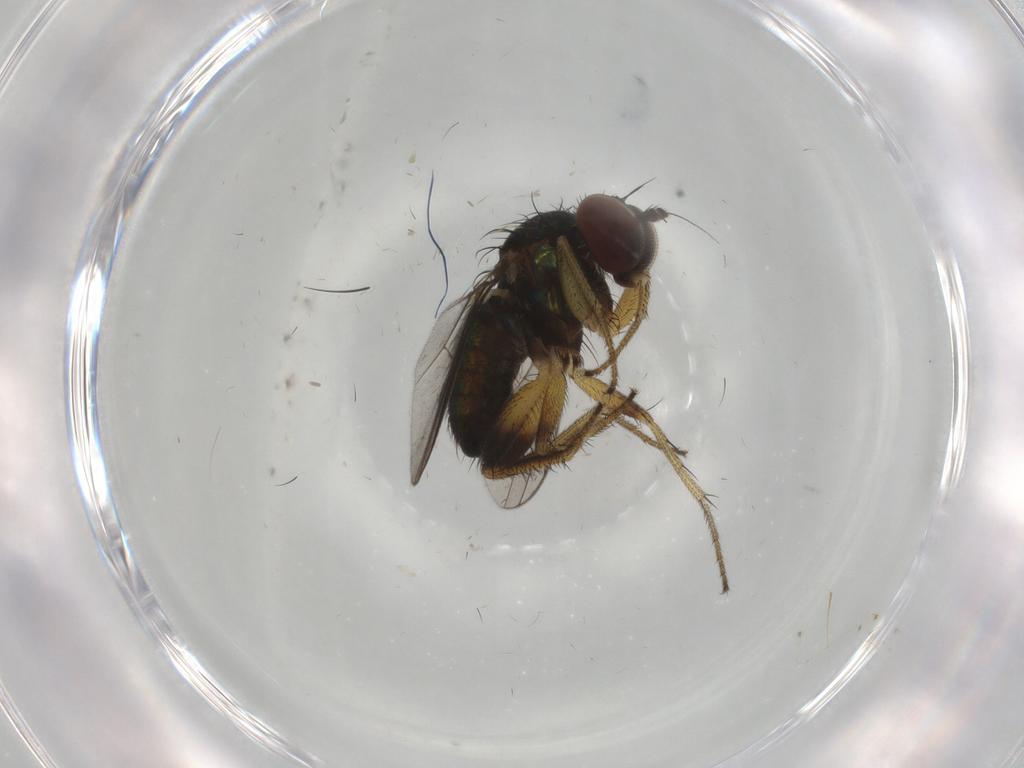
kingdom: Animalia
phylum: Arthropoda
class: Insecta
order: Diptera
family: Dolichopodidae
